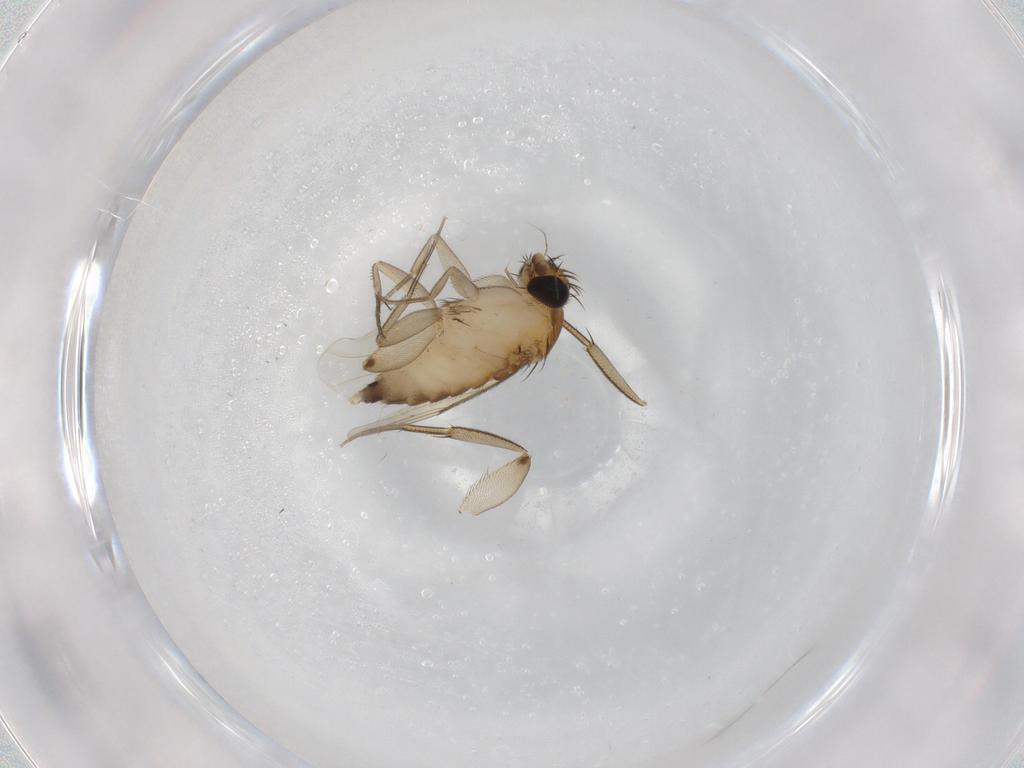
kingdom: Animalia
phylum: Arthropoda
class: Insecta
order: Diptera
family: Phoridae
